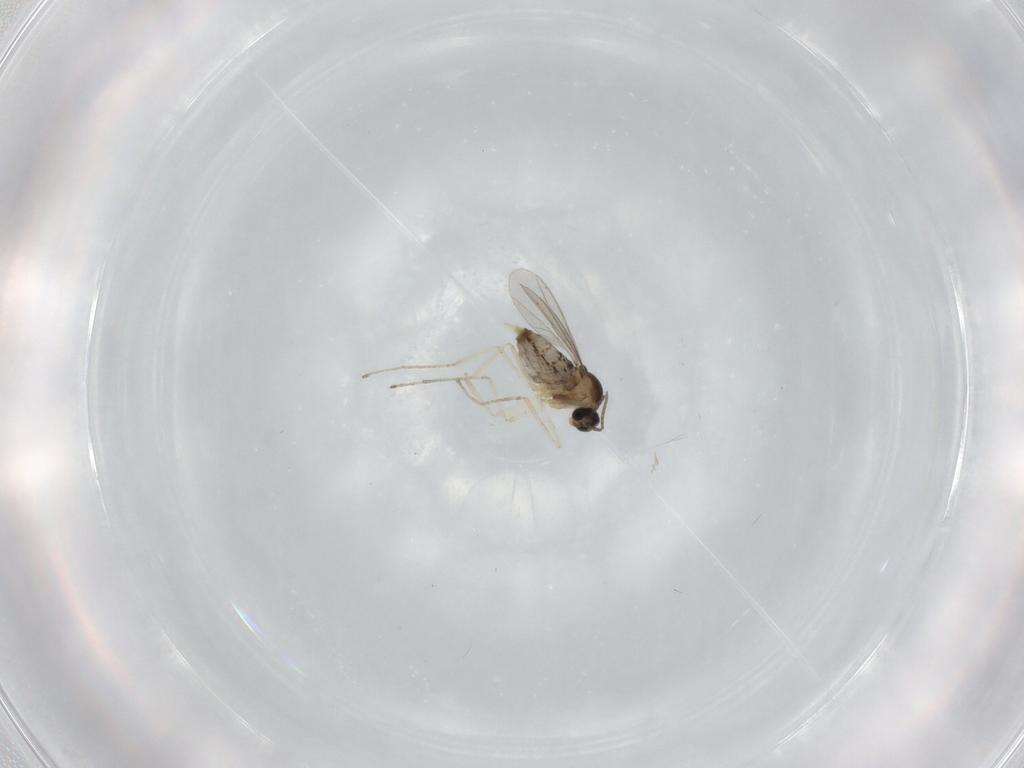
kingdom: Animalia
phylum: Arthropoda
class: Insecta
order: Diptera
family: Cecidomyiidae
